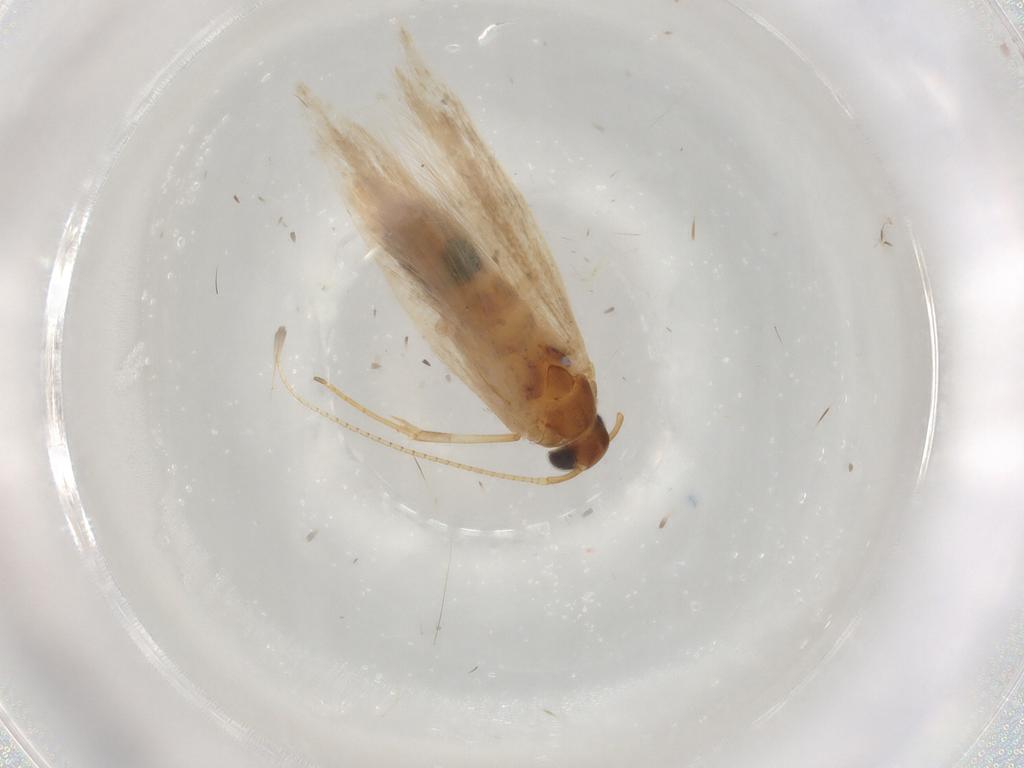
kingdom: Animalia
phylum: Arthropoda
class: Insecta
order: Lepidoptera
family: Gelechiidae
